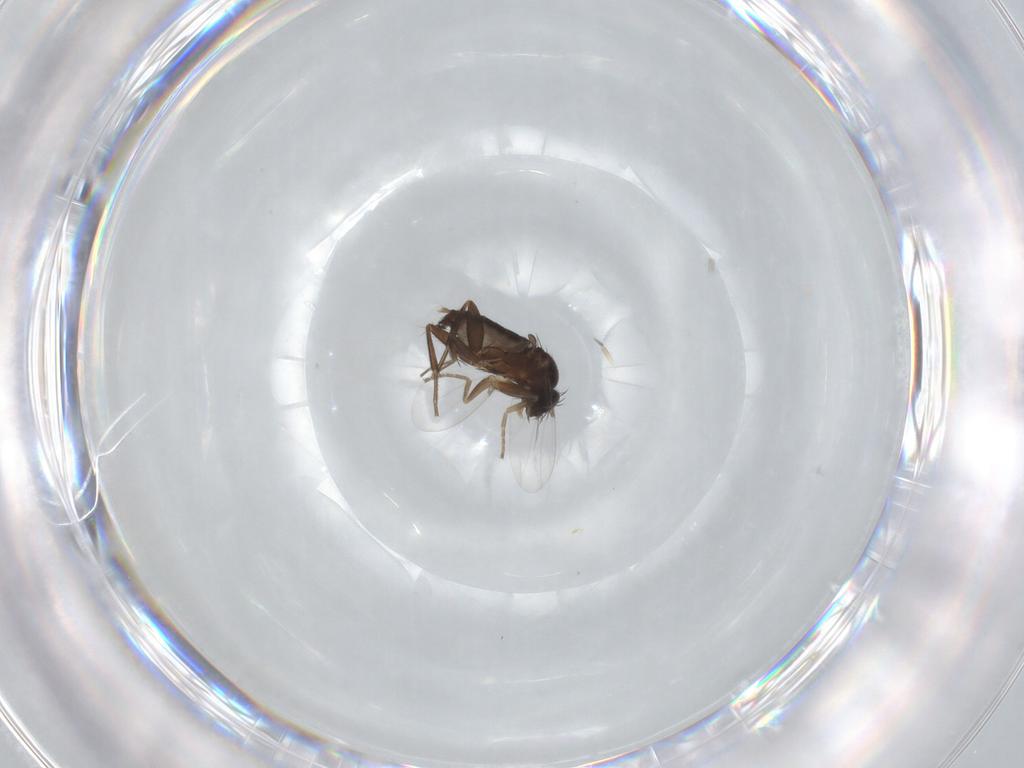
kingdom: Animalia
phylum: Arthropoda
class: Insecta
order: Diptera
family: Phoridae
